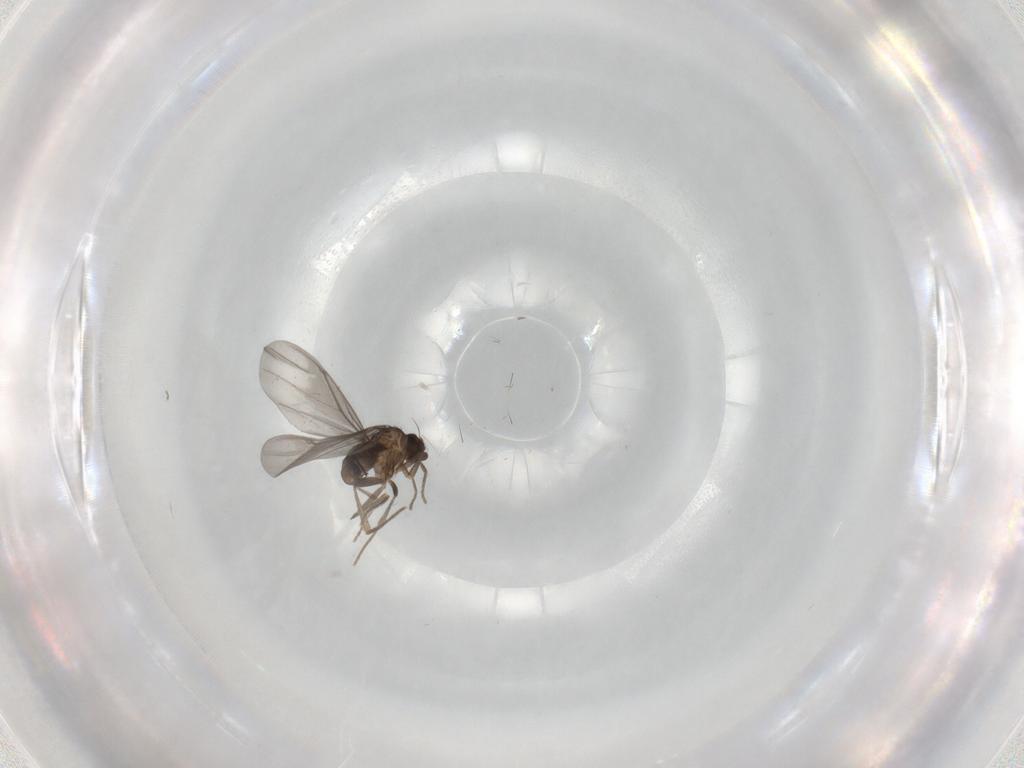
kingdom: Animalia
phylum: Arthropoda
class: Insecta
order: Diptera
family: Phoridae
